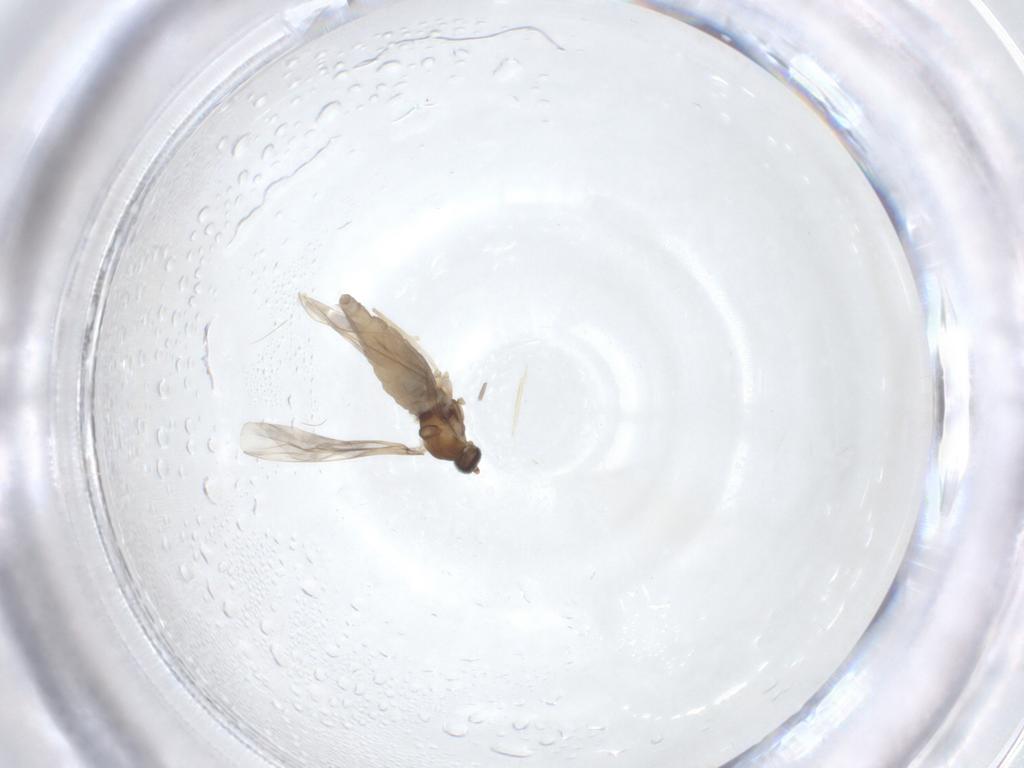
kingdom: Animalia
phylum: Arthropoda
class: Insecta
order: Diptera
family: Cecidomyiidae
